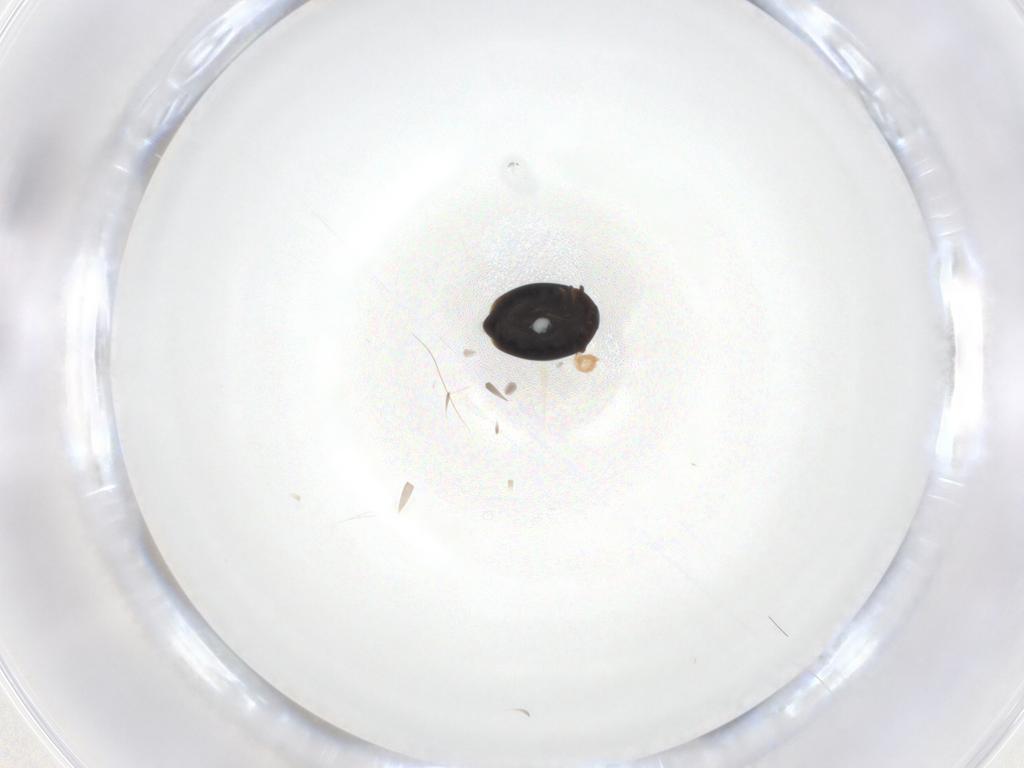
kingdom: Animalia
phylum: Arthropoda
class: Insecta
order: Coleoptera
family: Corylophidae
